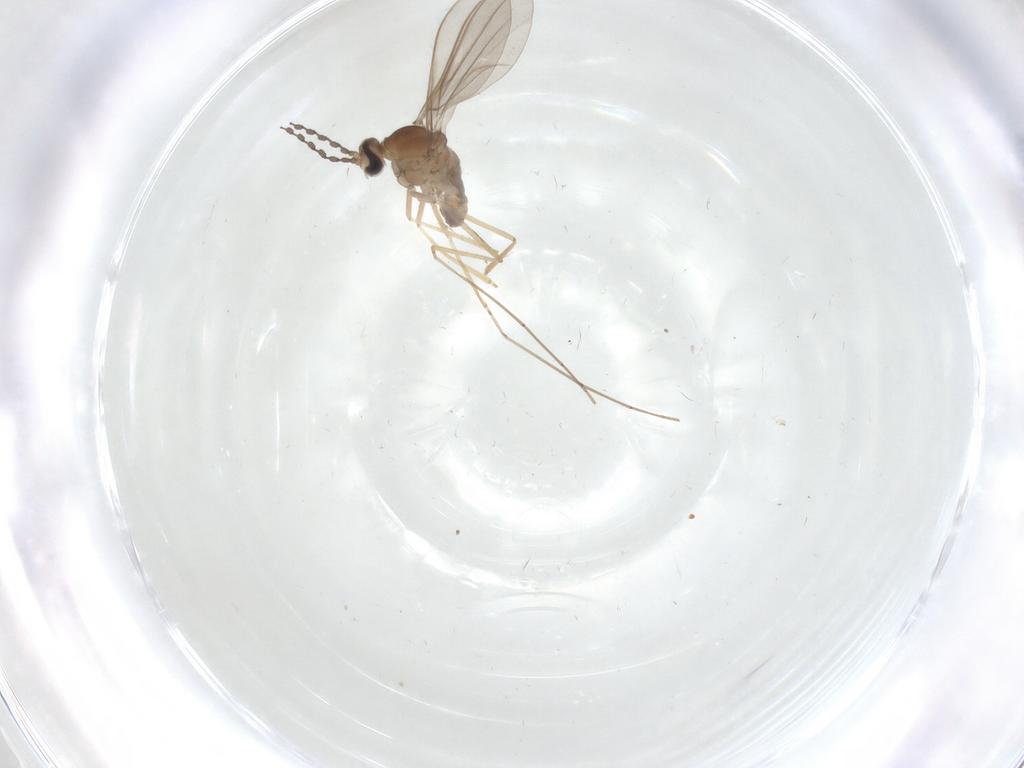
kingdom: Animalia
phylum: Arthropoda
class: Insecta
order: Diptera
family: Cecidomyiidae
